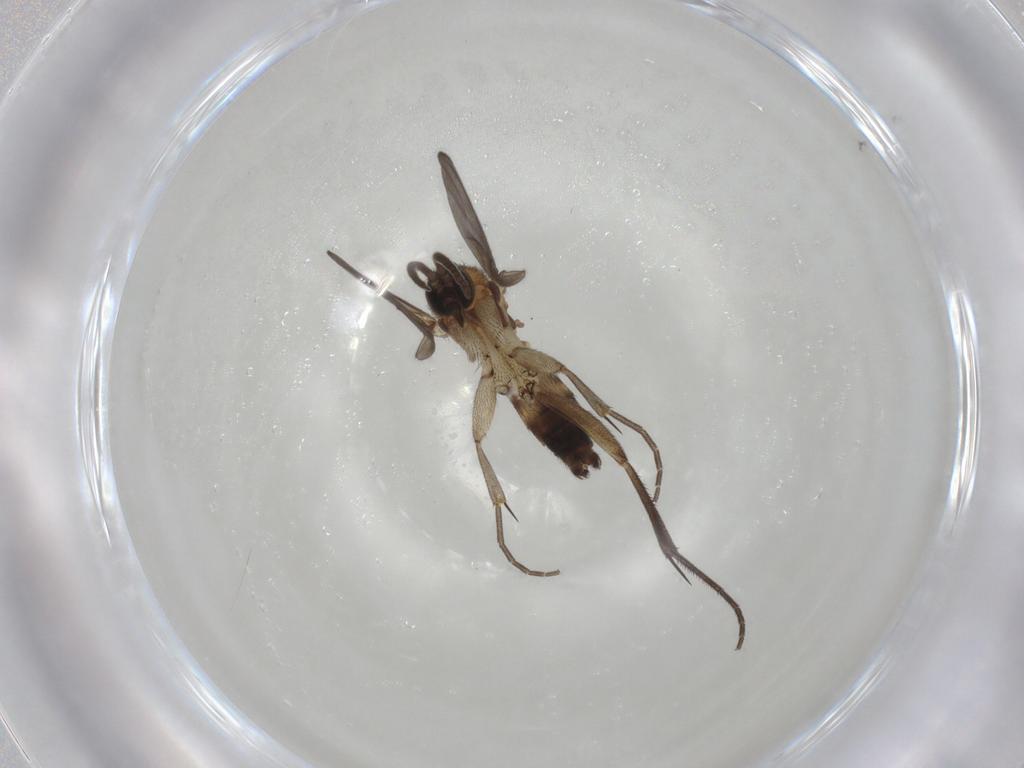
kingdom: Animalia
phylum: Arthropoda
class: Insecta
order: Diptera
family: Mycetophilidae
